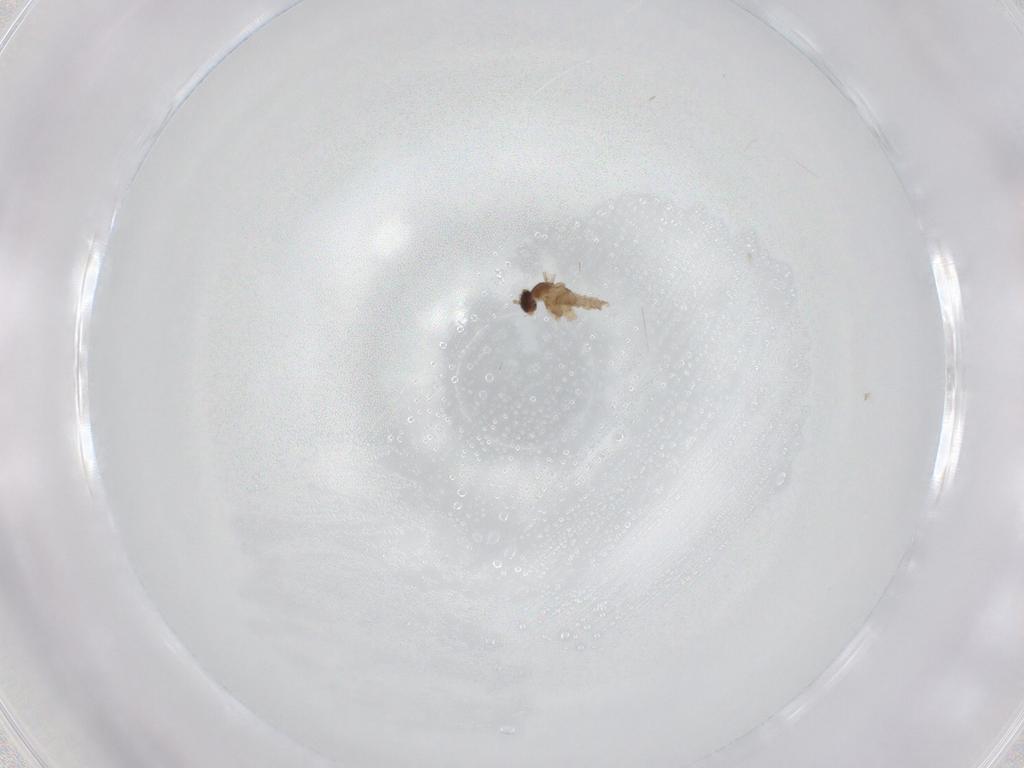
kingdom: Animalia
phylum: Arthropoda
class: Insecta
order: Diptera
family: Cecidomyiidae
